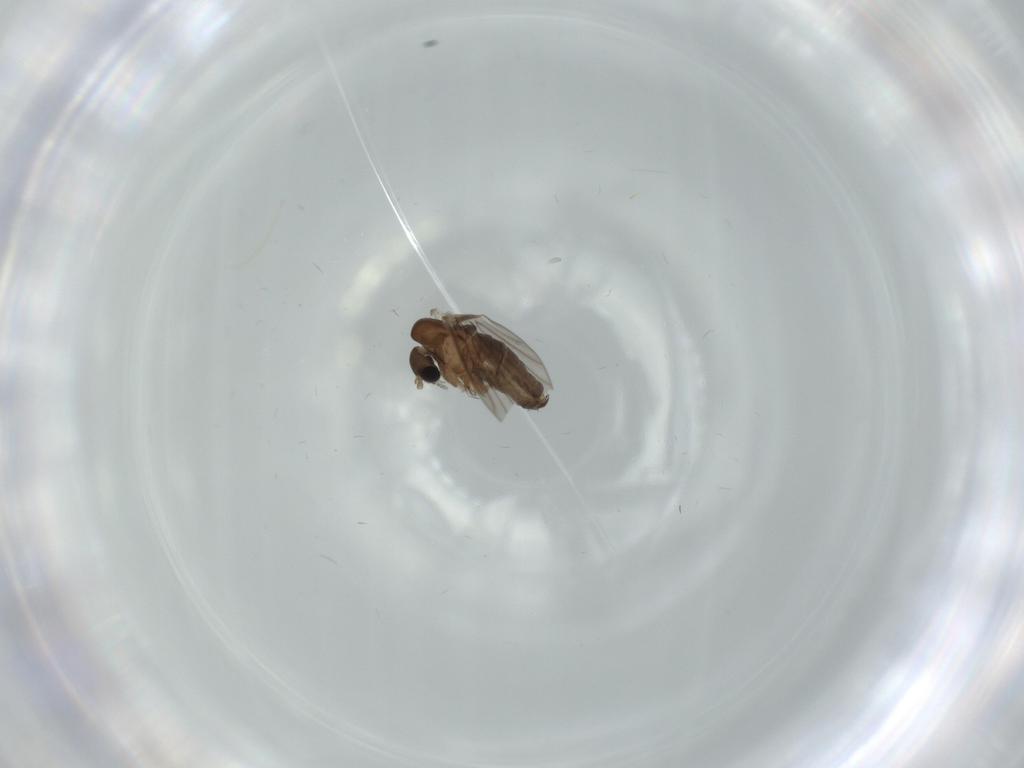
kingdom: Animalia
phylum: Arthropoda
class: Insecta
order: Diptera
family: Psychodidae
